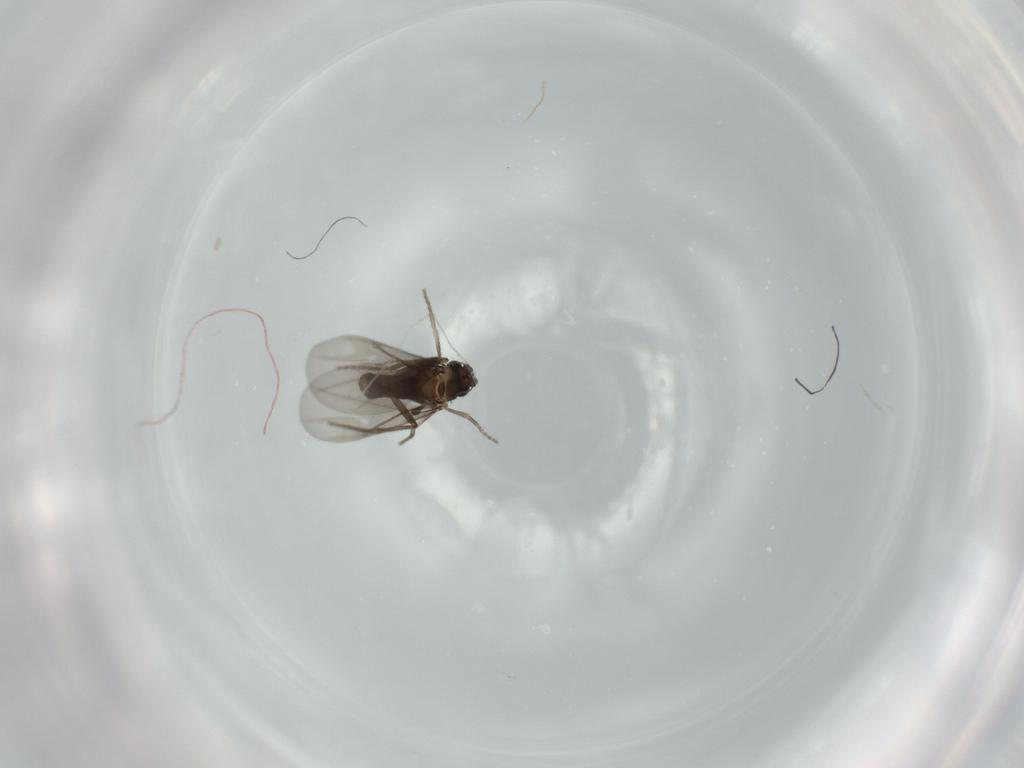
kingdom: Animalia
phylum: Arthropoda
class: Insecta
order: Diptera
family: Phoridae
